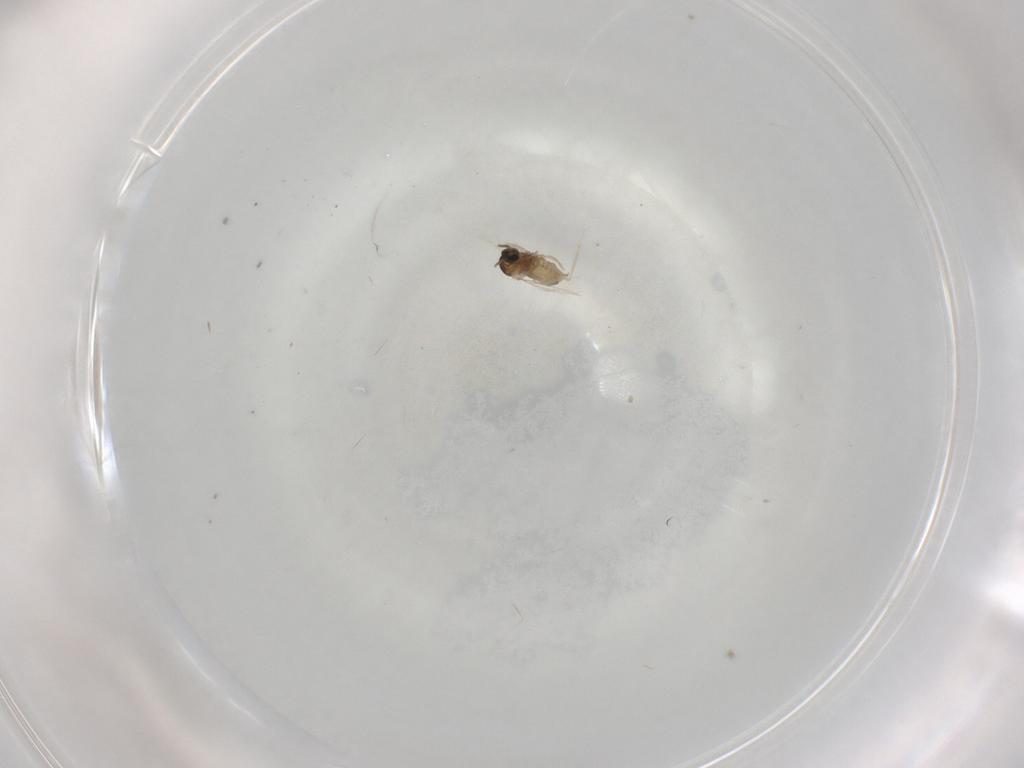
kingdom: Animalia
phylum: Arthropoda
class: Insecta
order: Diptera
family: Cecidomyiidae
